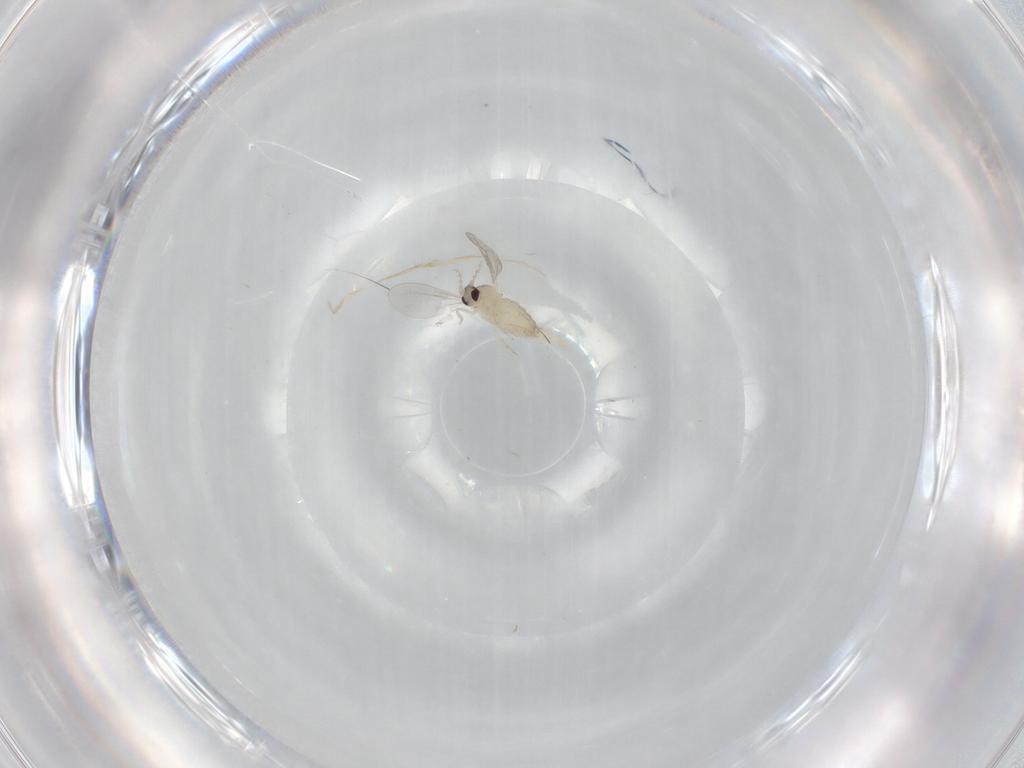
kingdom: Animalia
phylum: Arthropoda
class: Insecta
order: Diptera
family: Cecidomyiidae
